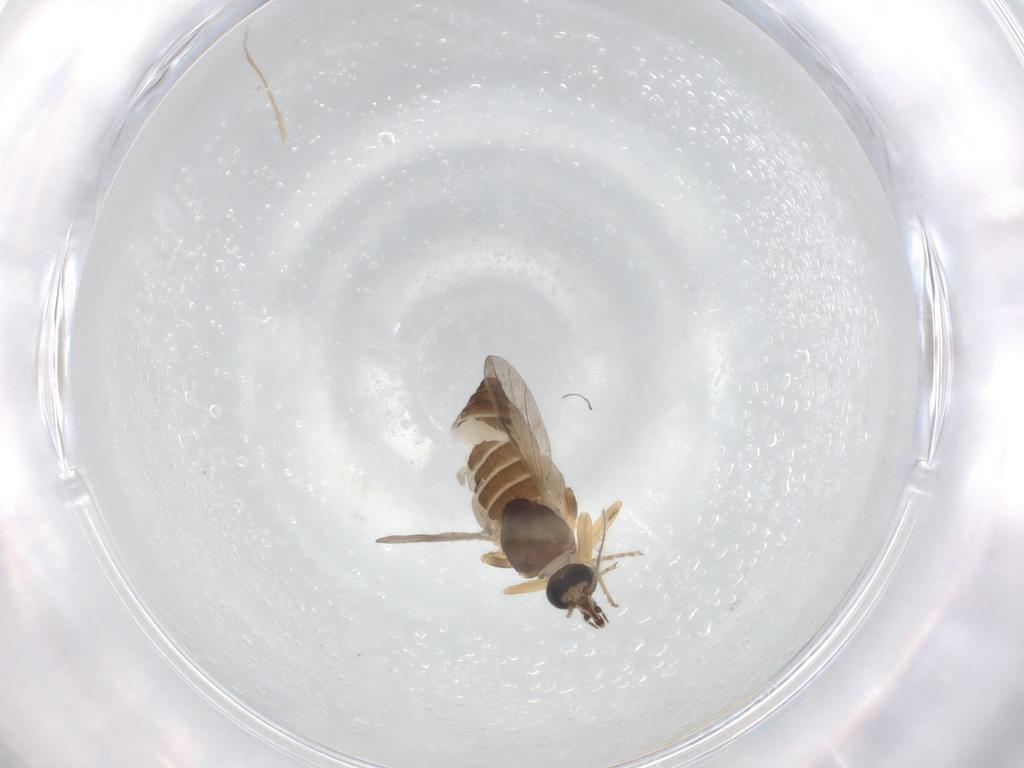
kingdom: Animalia
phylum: Arthropoda
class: Insecta
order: Diptera
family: Ceratopogonidae
